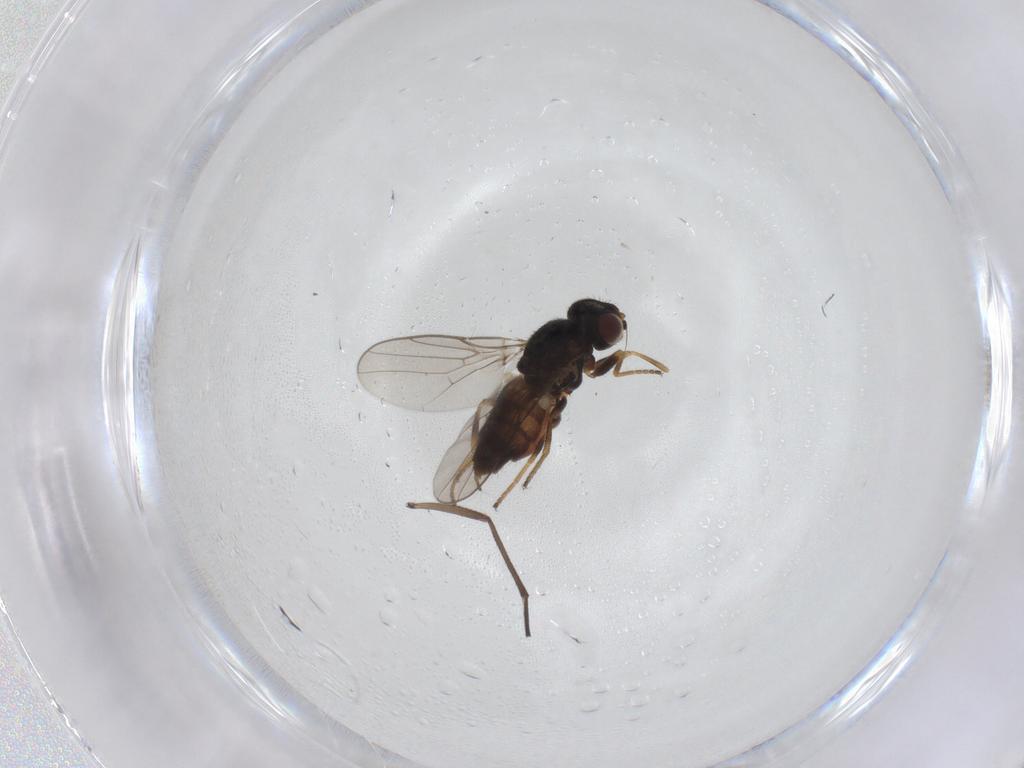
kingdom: Animalia
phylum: Arthropoda
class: Insecta
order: Diptera
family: Chloropidae
